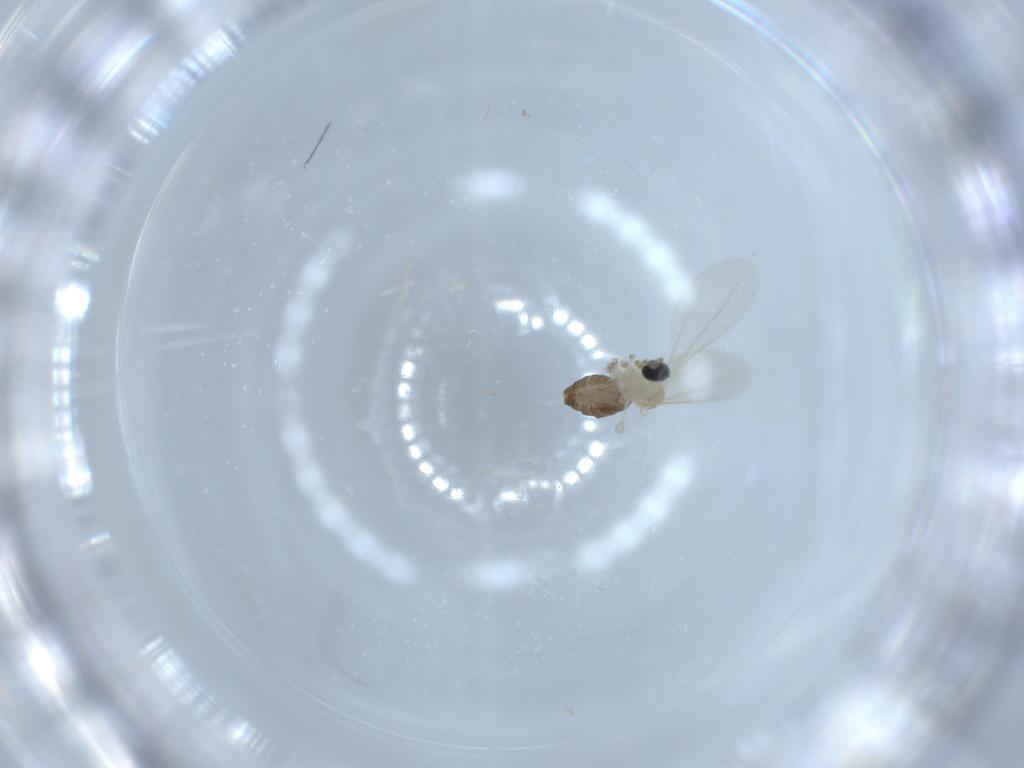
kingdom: Animalia
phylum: Arthropoda
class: Insecta
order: Diptera
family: Cecidomyiidae
